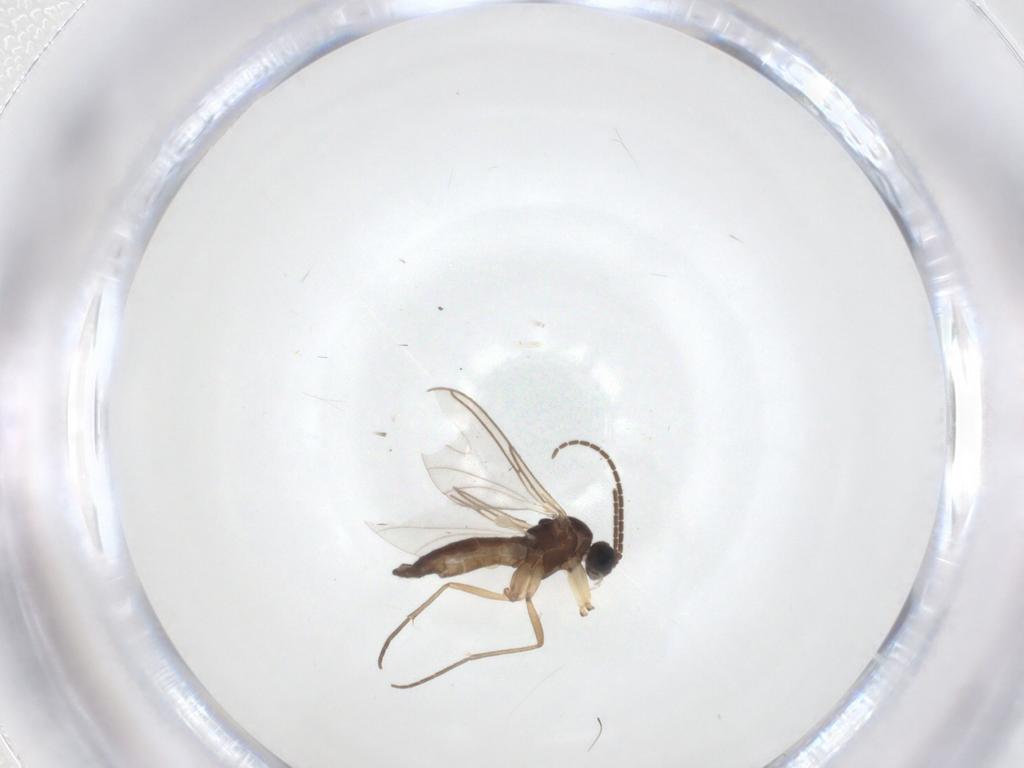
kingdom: Animalia
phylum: Arthropoda
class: Insecta
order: Diptera
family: Sciaridae
